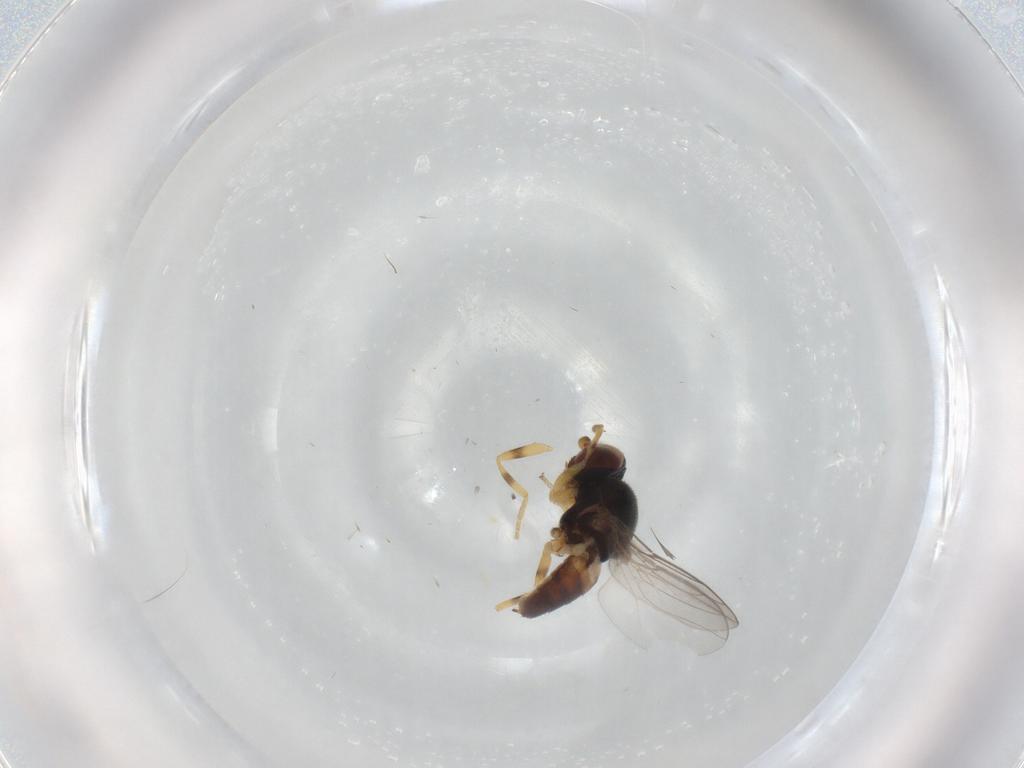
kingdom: Animalia
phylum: Arthropoda
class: Insecta
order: Diptera
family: Chloropidae
